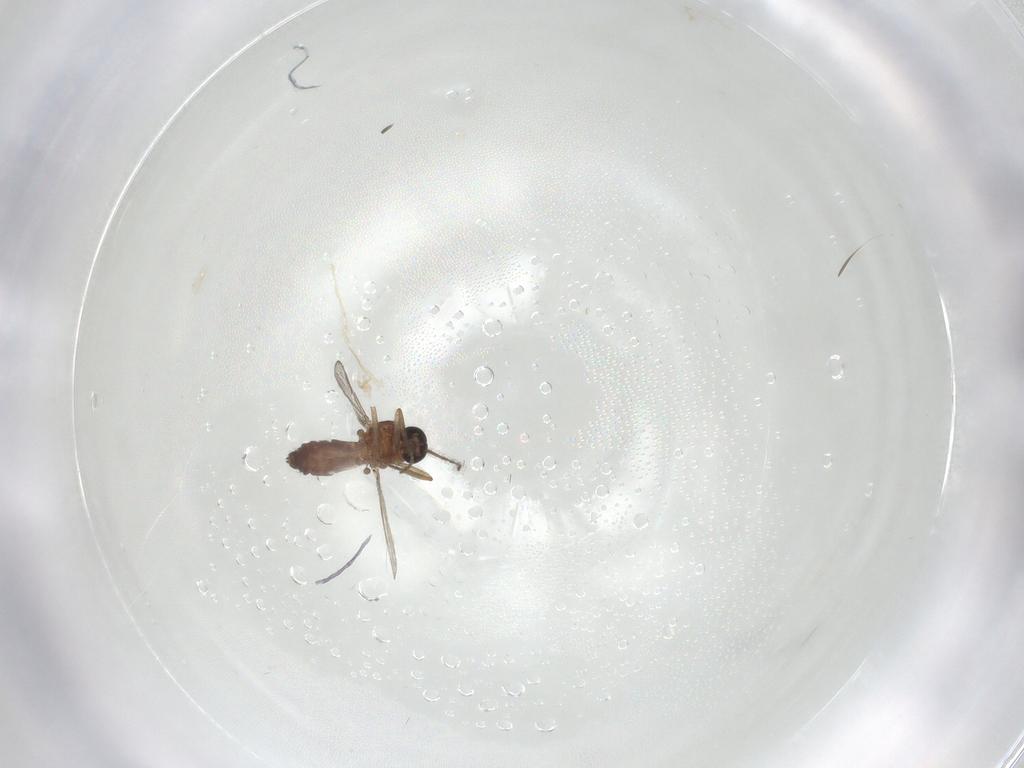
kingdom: Animalia
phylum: Arthropoda
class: Insecta
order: Diptera
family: Ceratopogonidae
